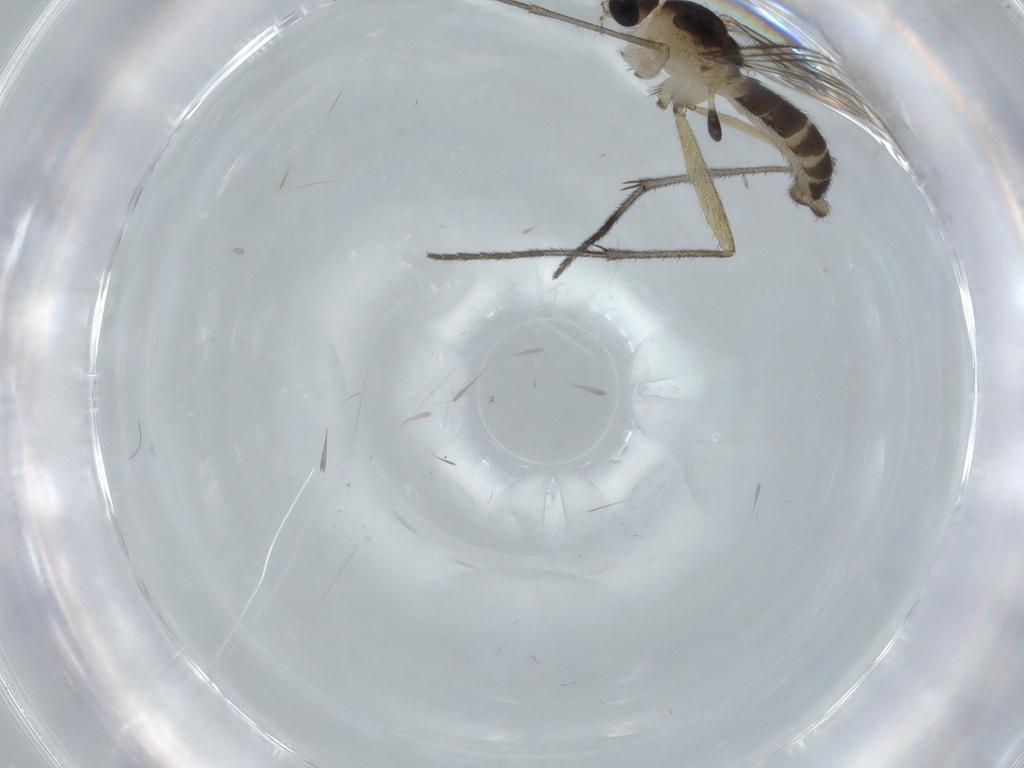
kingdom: Animalia
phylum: Arthropoda
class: Insecta
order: Diptera
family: Sciaridae
